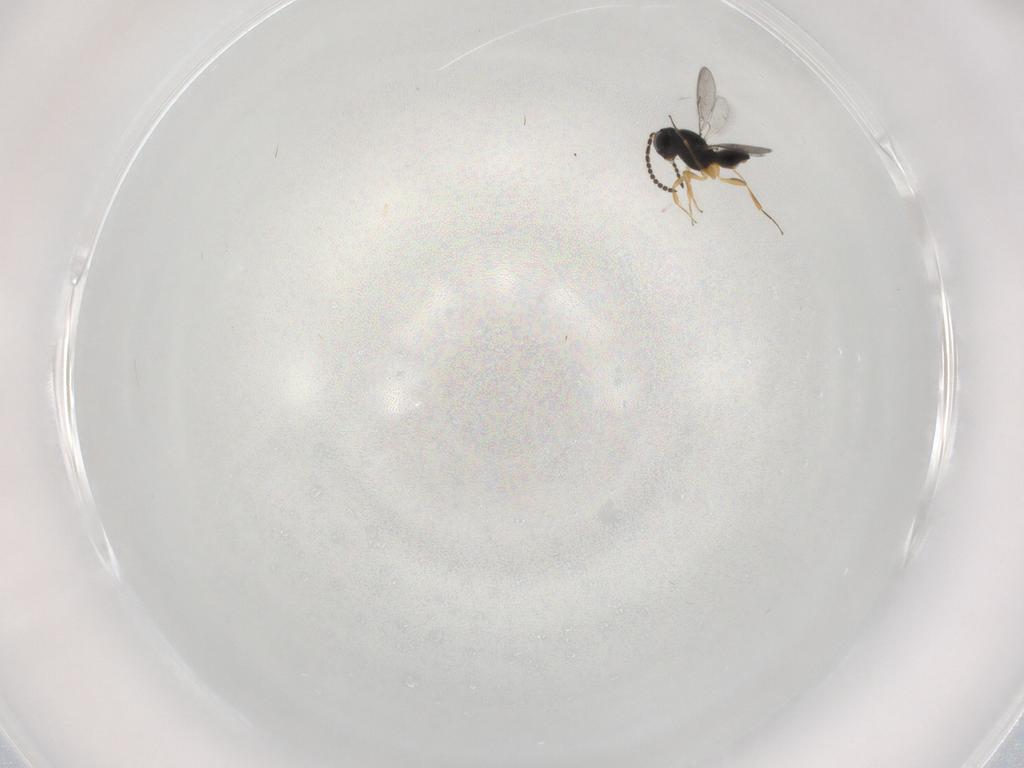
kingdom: Animalia
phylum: Arthropoda
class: Insecta
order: Hymenoptera
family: Scelionidae
